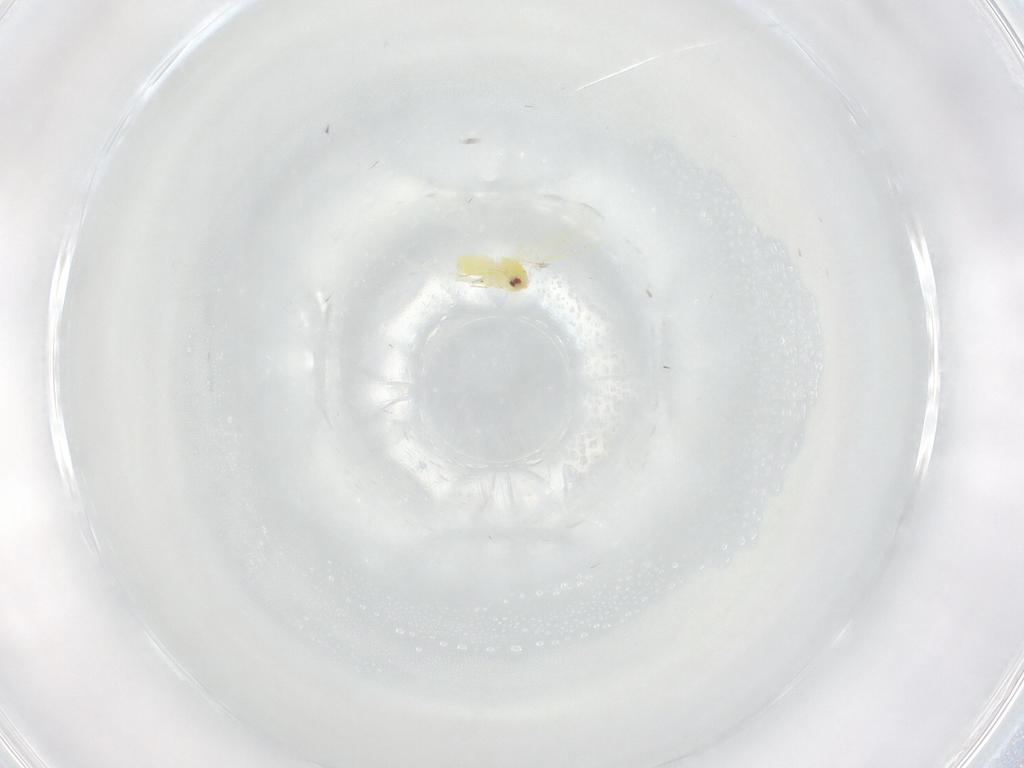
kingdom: Animalia
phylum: Arthropoda
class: Insecta
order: Hemiptera
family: Aleyrodidae
